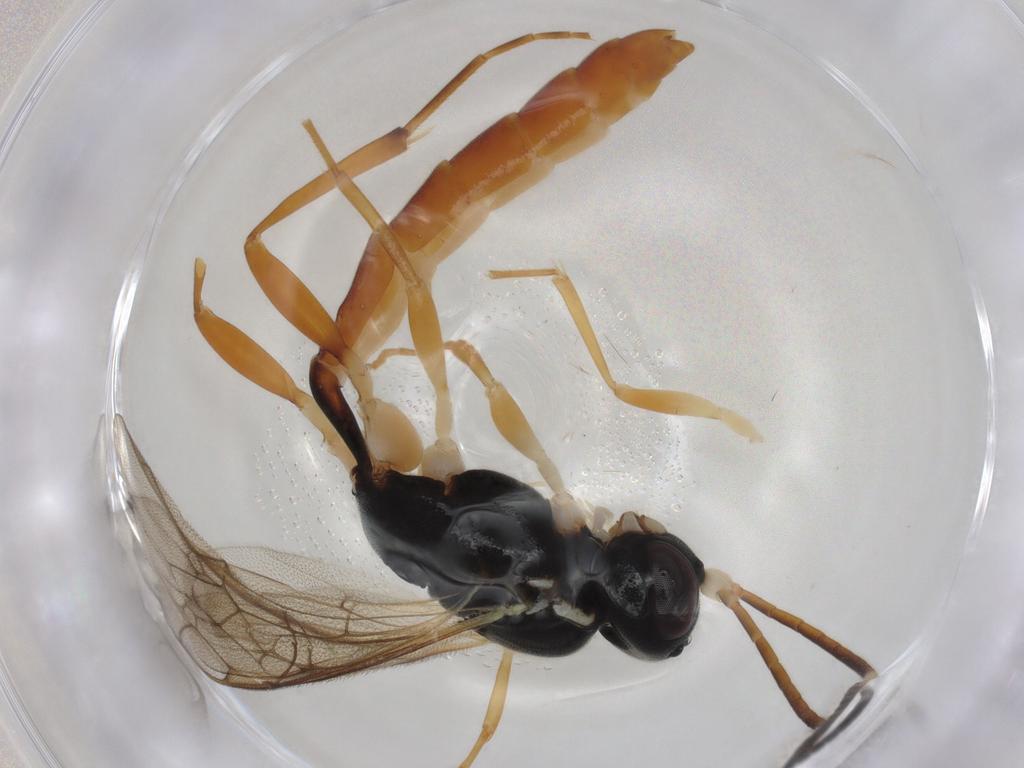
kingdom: Animalia
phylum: Arthropoda
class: Insecta
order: Hymenoptera
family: Ichneumonidae
